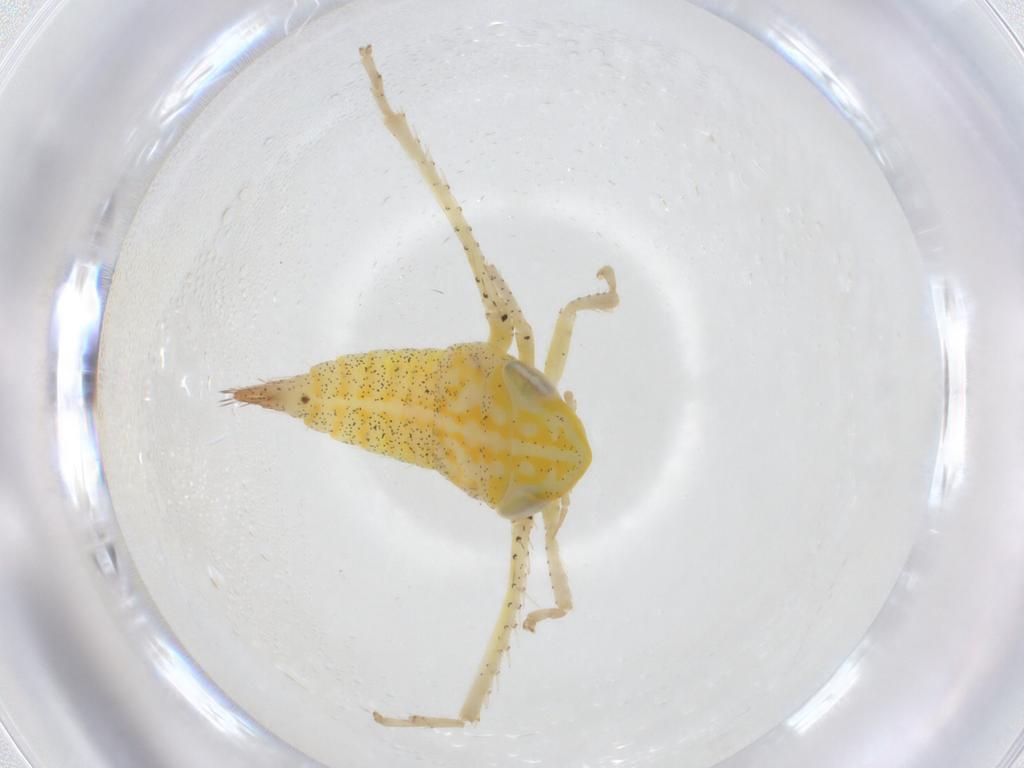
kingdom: Animalia
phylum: Arthropoda
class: Insecta
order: Hemiptera
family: Cicadellidae
